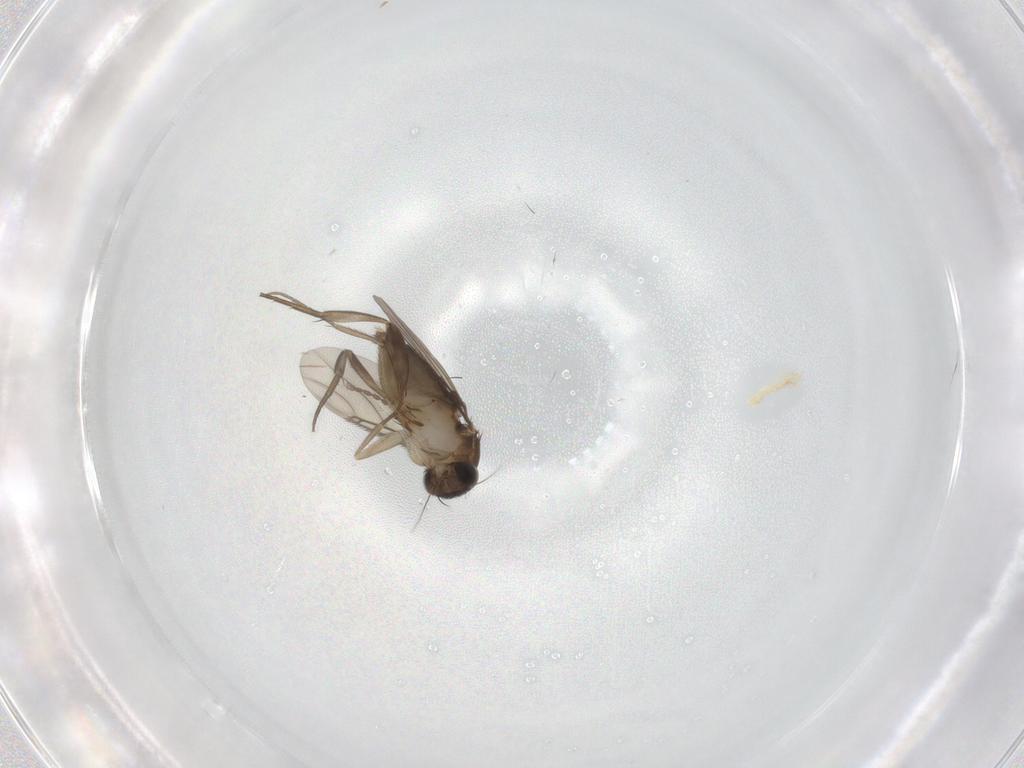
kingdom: Animalia
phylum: Arthropoda
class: Insecta
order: Diptera
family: Phoridae
